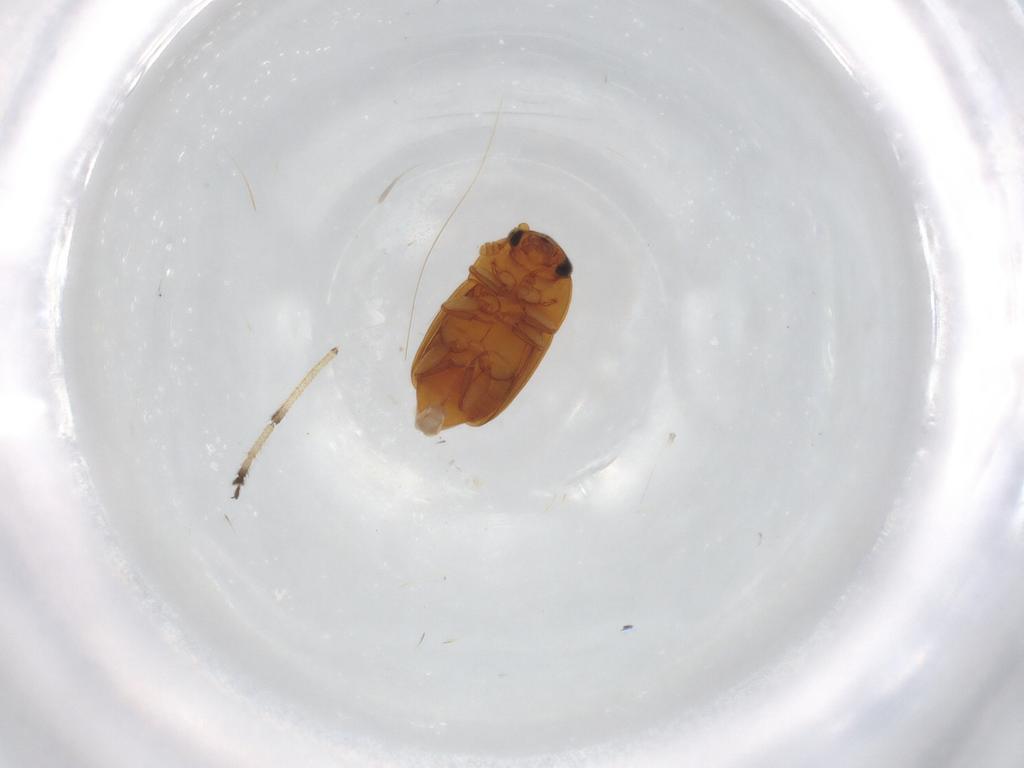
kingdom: Animalia
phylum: Arthropoda
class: Insecta
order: Coleoptera
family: Nitidulidae
